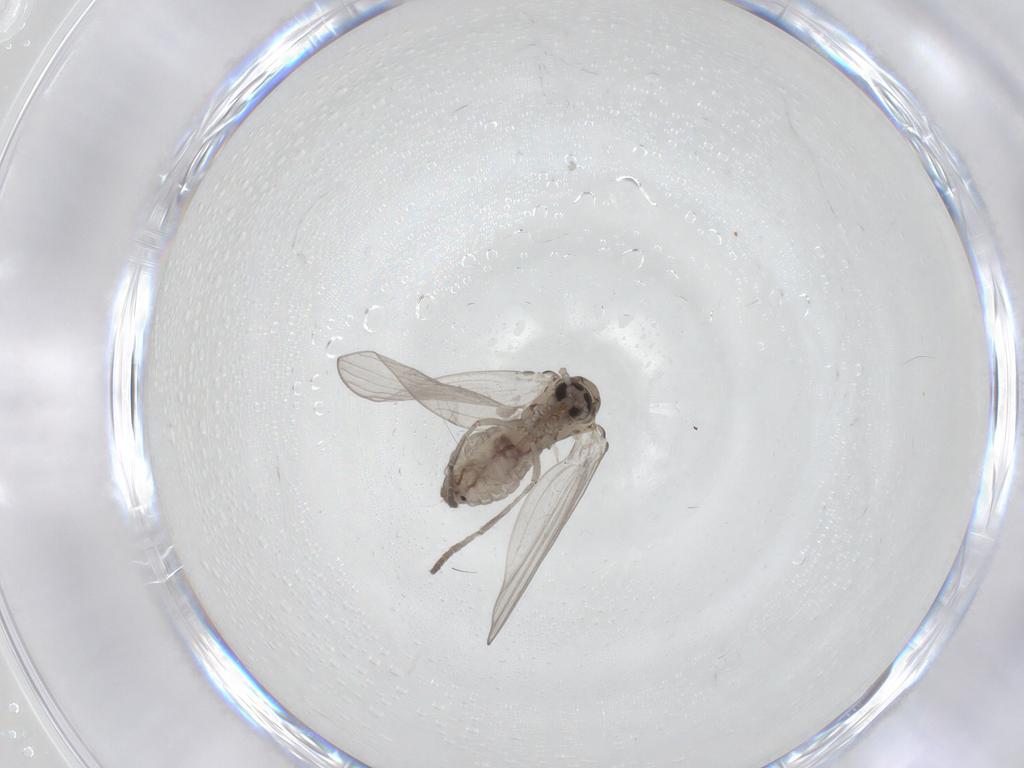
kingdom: Animalia
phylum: Arthropoda
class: Insecta
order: Diptera
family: Psychodidae
